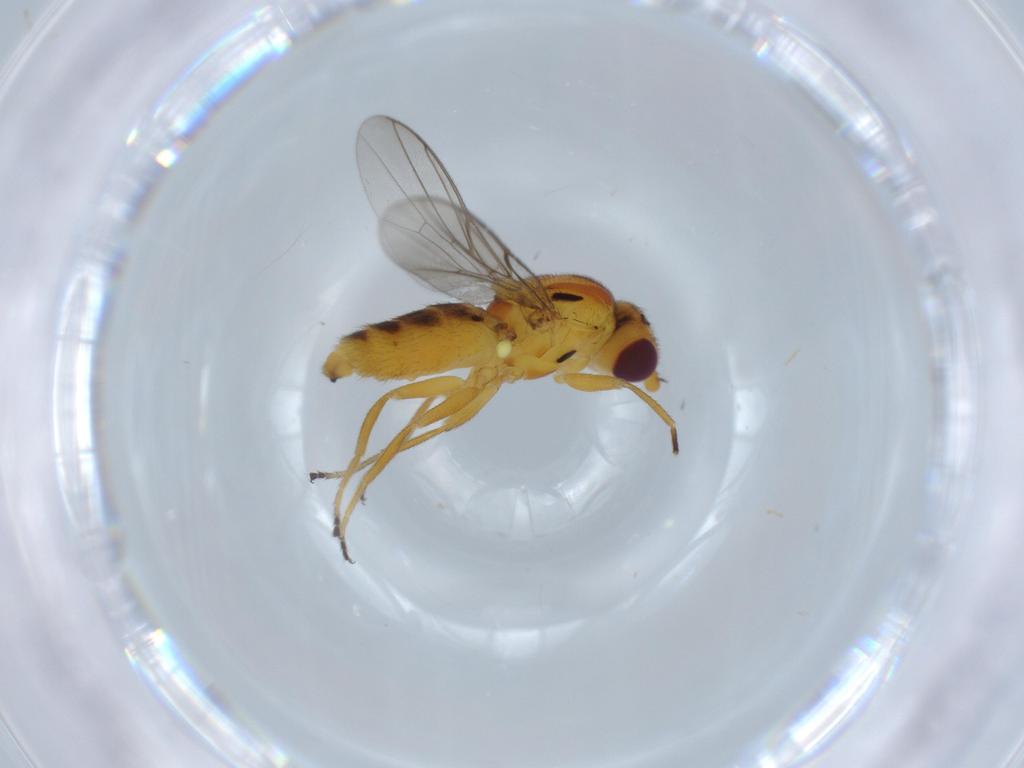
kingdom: Animalia
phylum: Arthropoda
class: Insecta
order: Diptera
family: Chloropidae
